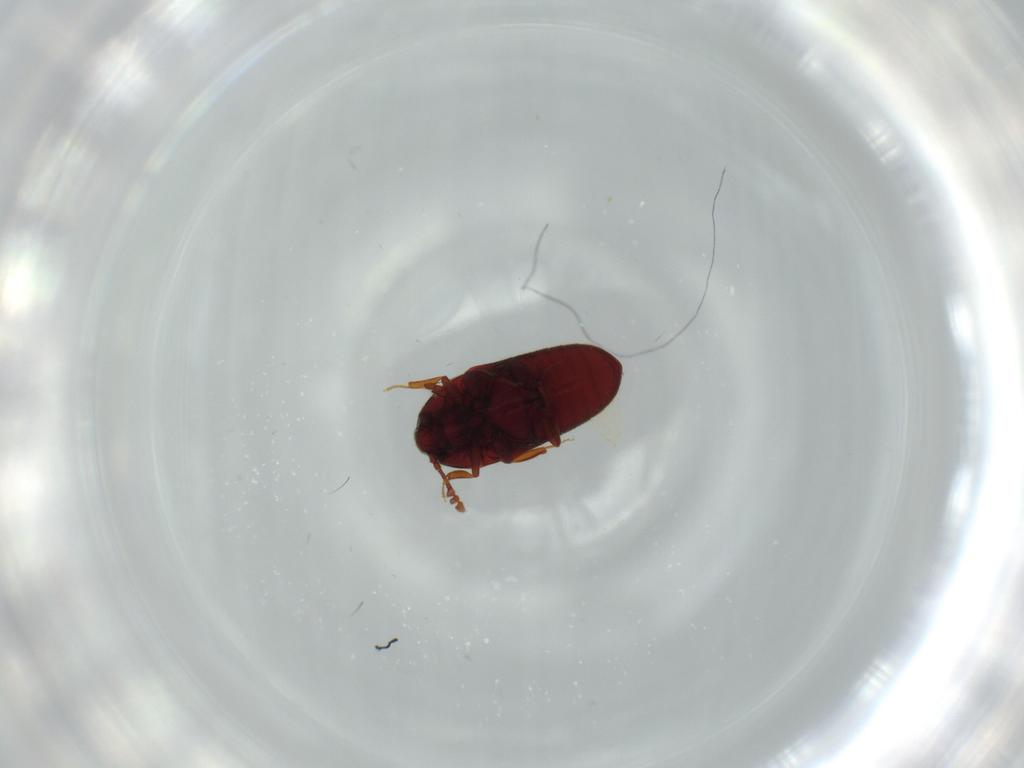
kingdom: Animalia
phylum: Arthropoda
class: Insecta
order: Coleoptera
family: Throscidae
